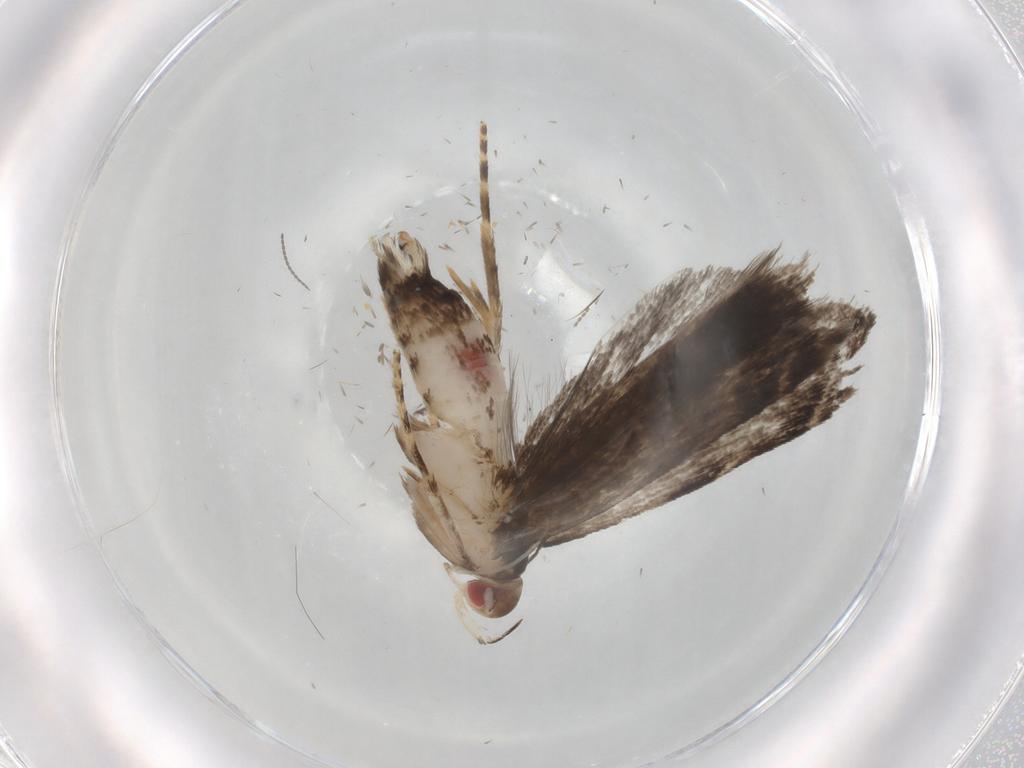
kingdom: Animalia
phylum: Arthropoda
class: Insecta
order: Lepidoptera
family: Gelechiidae
